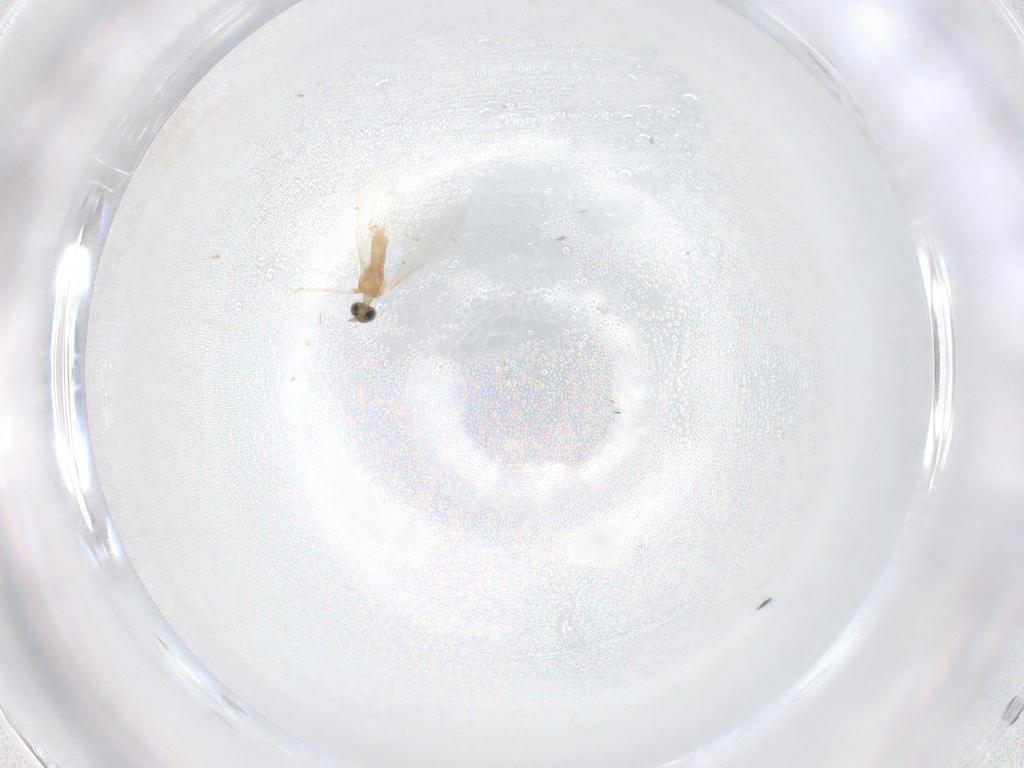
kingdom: Animalia
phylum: Arthropoda
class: Insecta
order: Diptera
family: Cecidomyiidae
